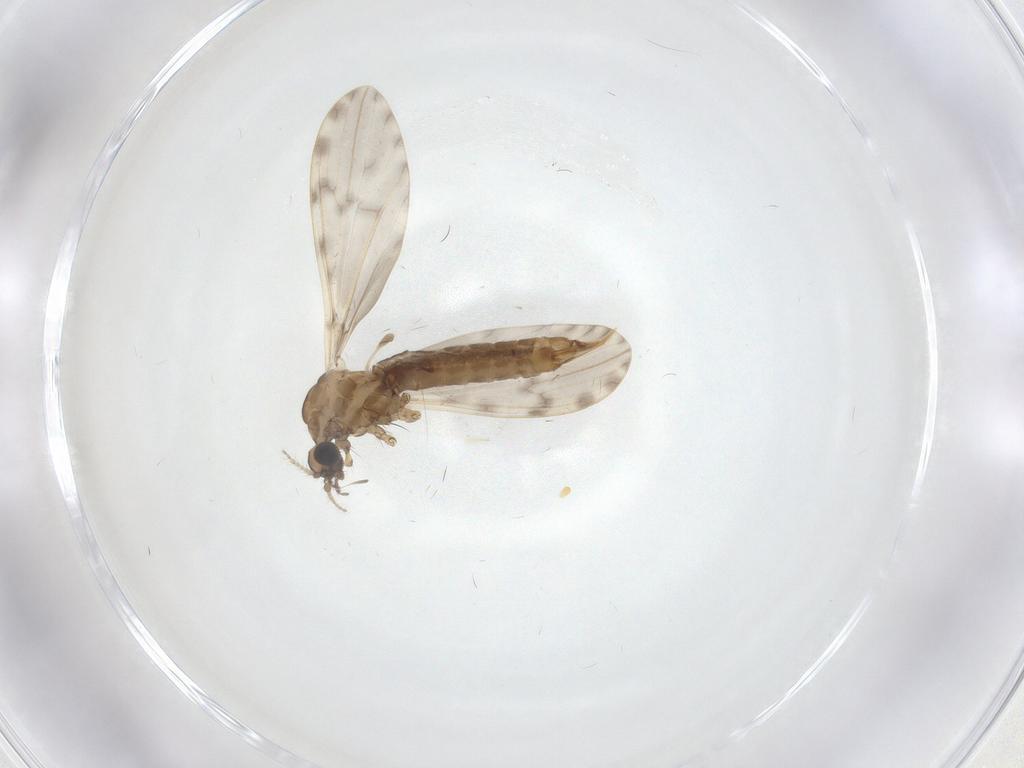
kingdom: Animalia
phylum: Arthropoda
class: Insecta
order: Diptera
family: Limoniidae
